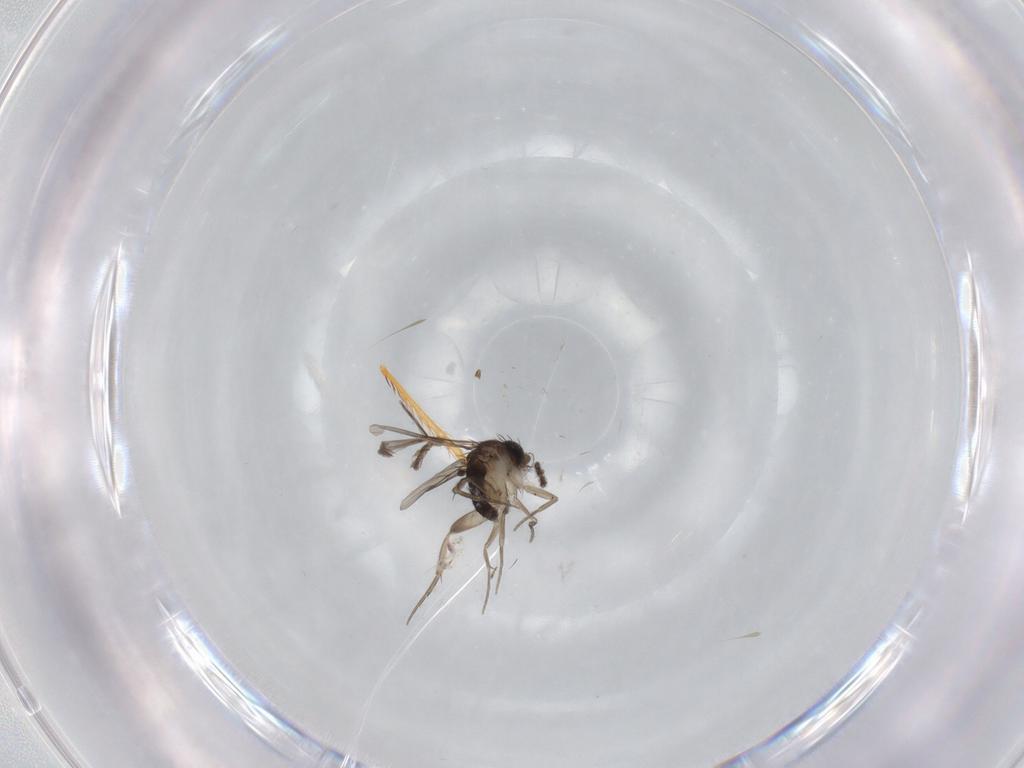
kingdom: Animalia
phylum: Arthropoda
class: Insecta
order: Diptera
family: Phoridae
